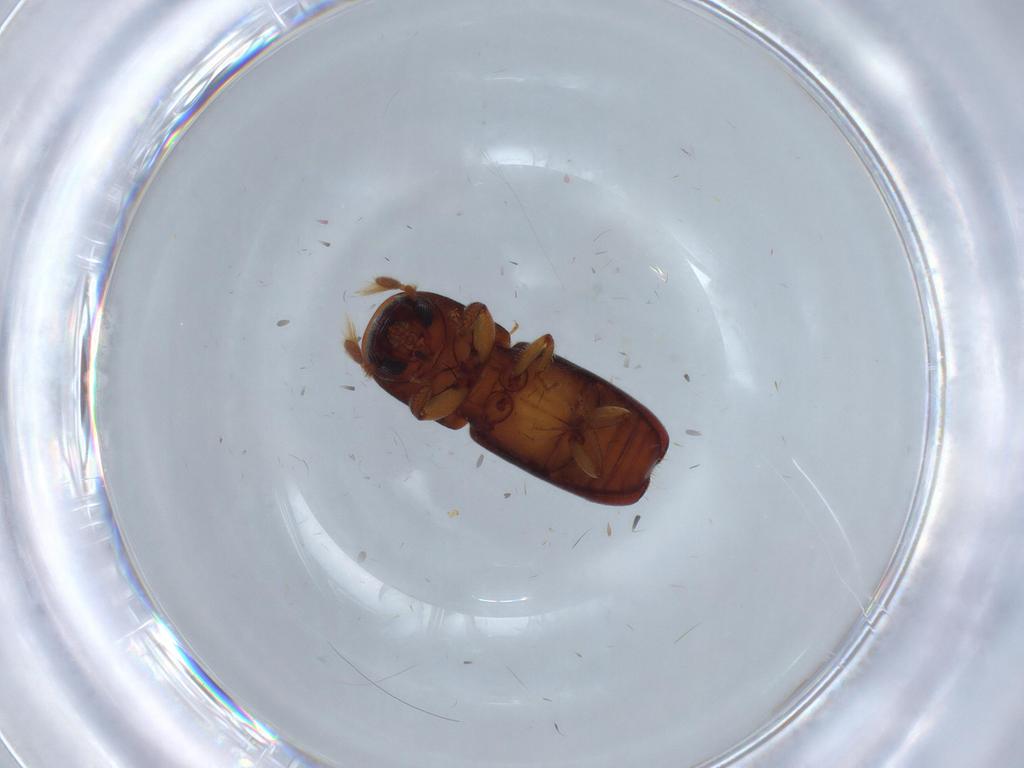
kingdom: Animalia
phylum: Arthropoda
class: Insecta
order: Coleoptera
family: Curculionidae
